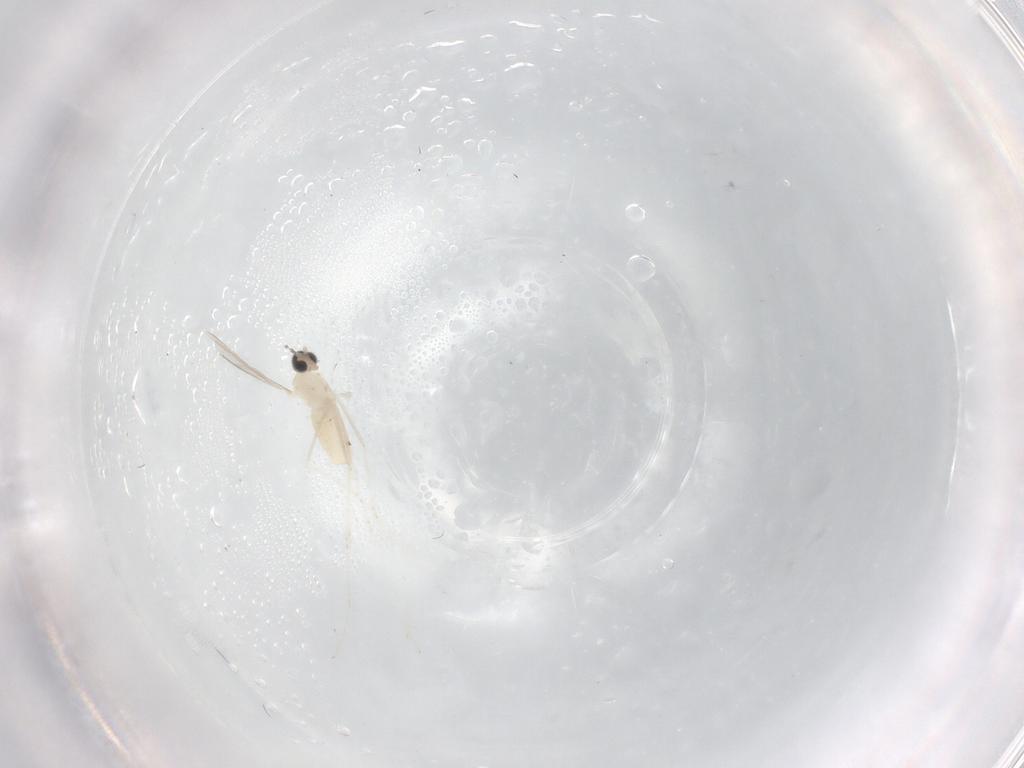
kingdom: Animalia
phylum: Arthropoda
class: Insecta
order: Diptera
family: Cecidomyiidae
